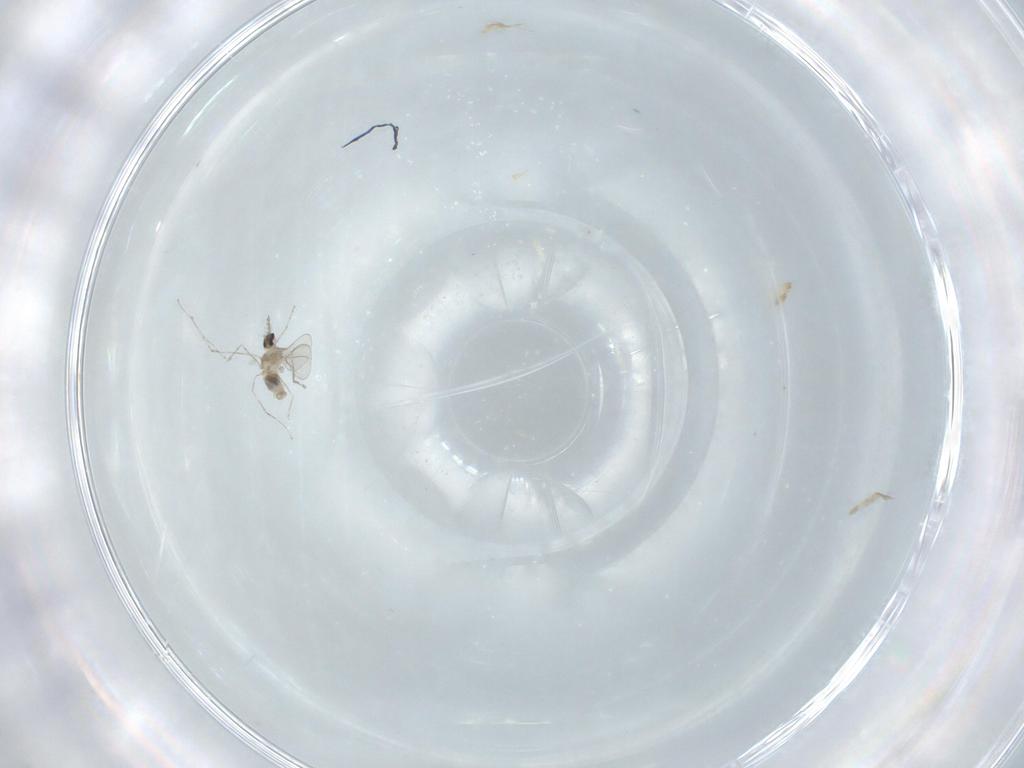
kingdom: Animalia
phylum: Arthropoda
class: Insecta
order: Diptera
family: Cecidomyiidae
